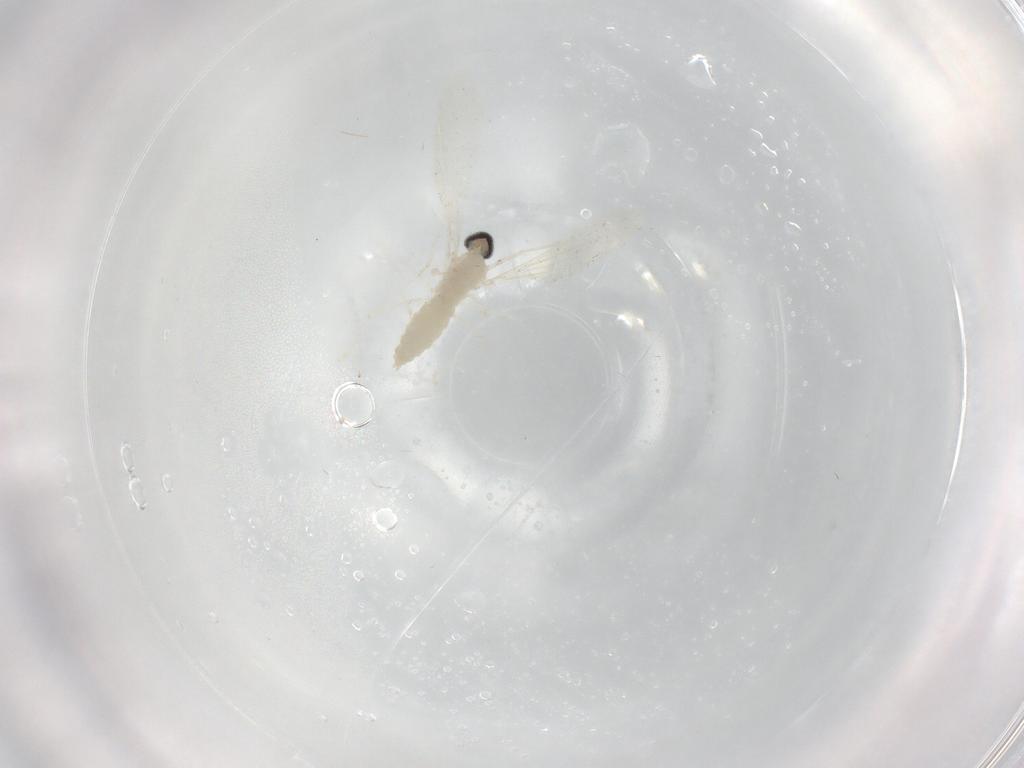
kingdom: Animalia
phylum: Arthropoda
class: Insecta
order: Diptera
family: Cecidomyiidae
